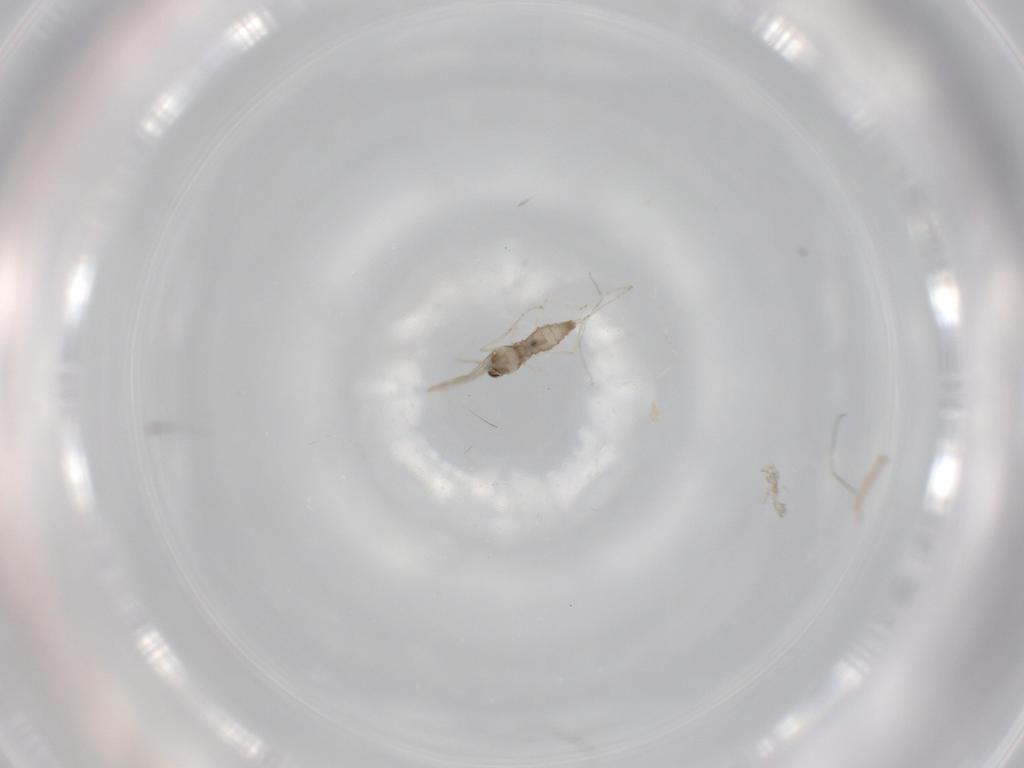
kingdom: Animalia
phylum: Arthropoda
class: Insecta
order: Diptera
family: Cecidomyiidae
